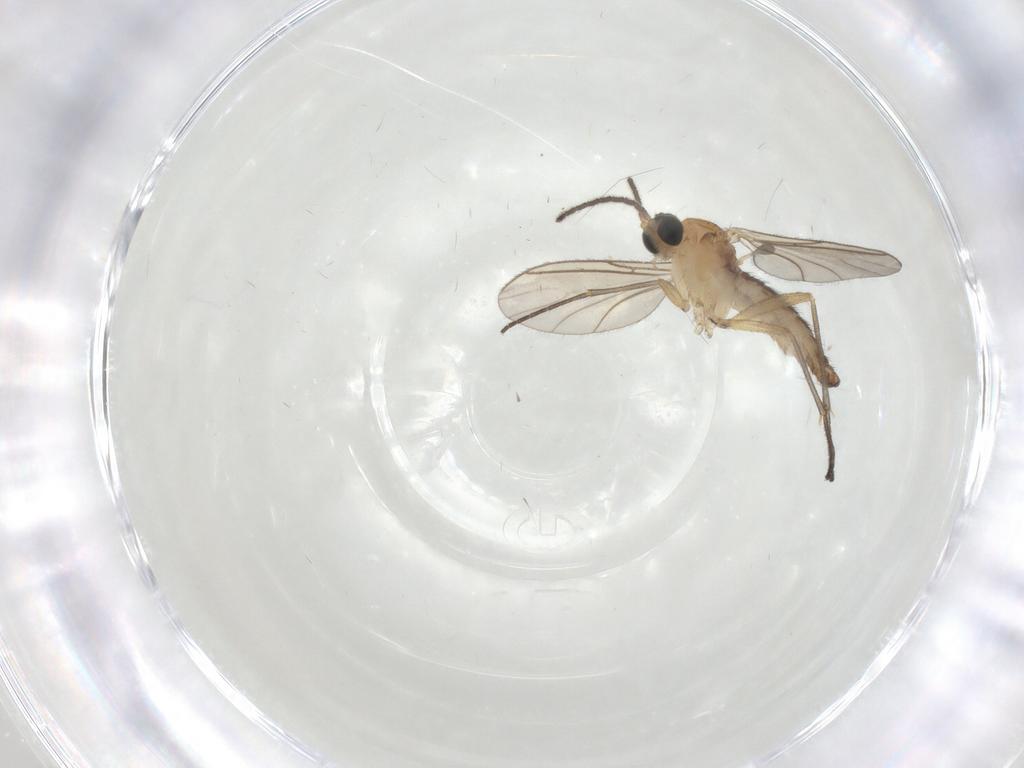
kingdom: Animalia
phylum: Arthropoda
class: Insecta
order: Diptera
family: Sciaridae
